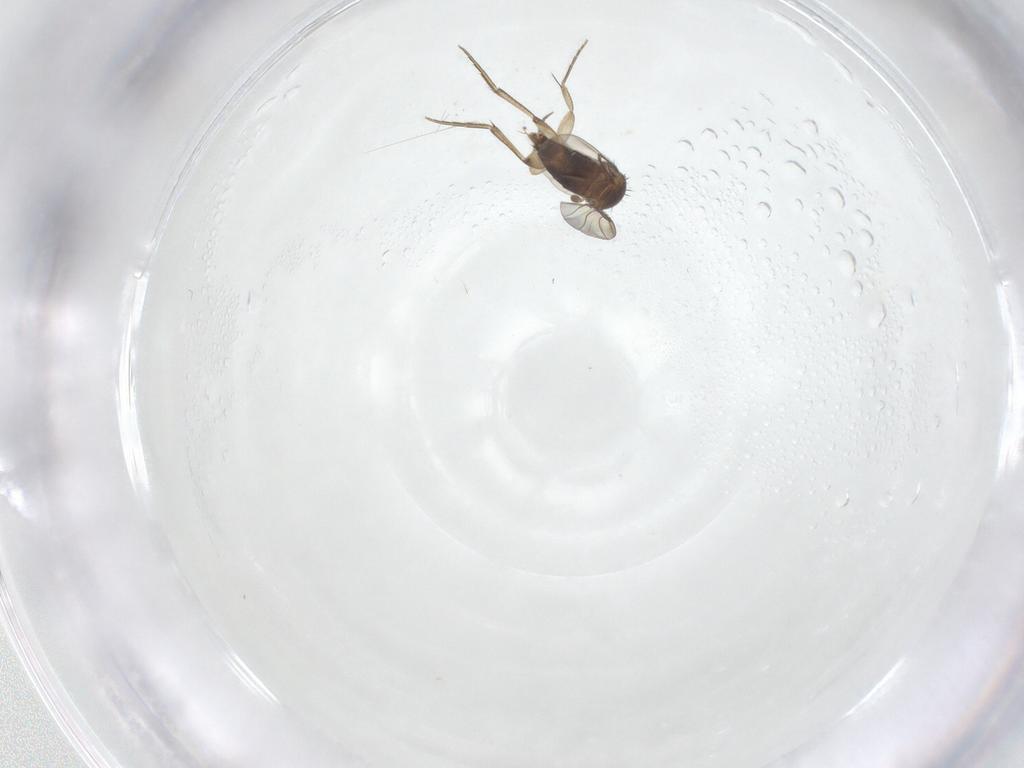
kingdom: Animalia
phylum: Arthropoda
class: Insecta
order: Diptera
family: Phoridae
